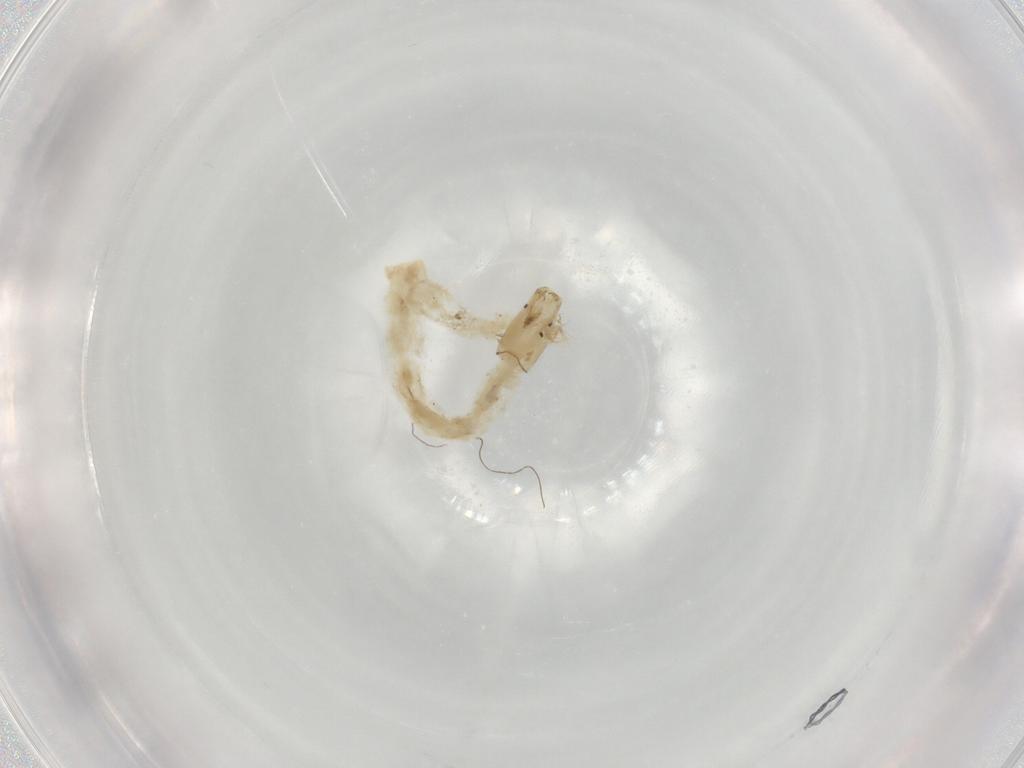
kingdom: Animalia
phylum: Arthropoda
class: Insecta
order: Diptera
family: Chironomidae
